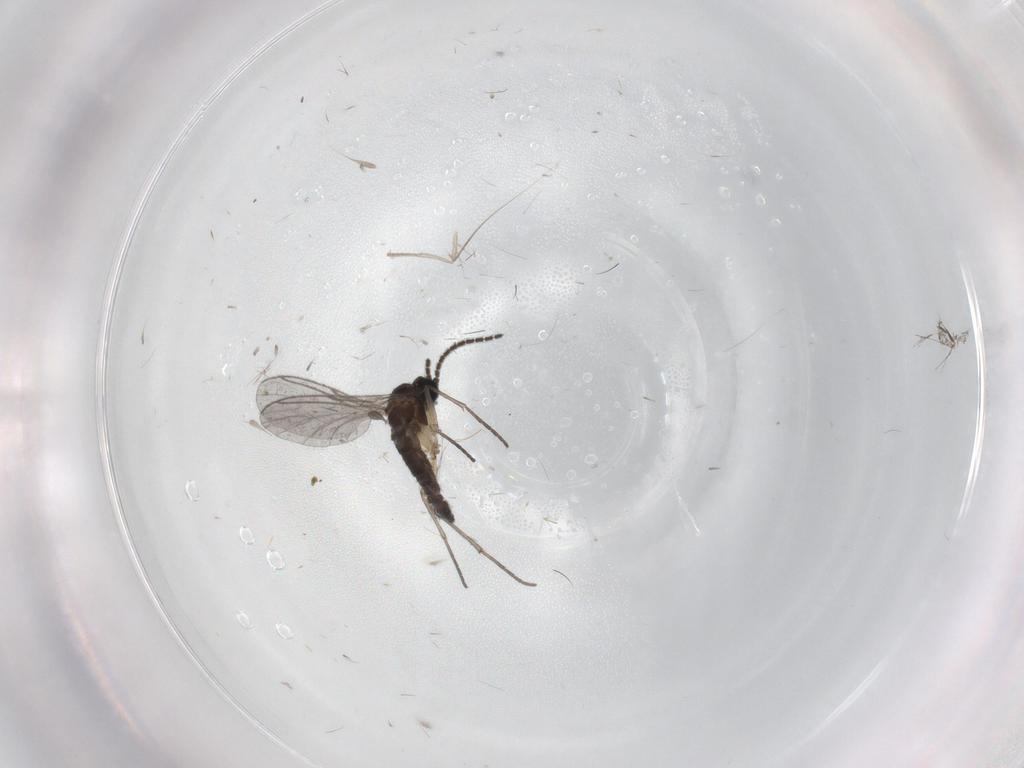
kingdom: Animalia
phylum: Arthropoda
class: Insecta
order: Diptera
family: Sciaridae
